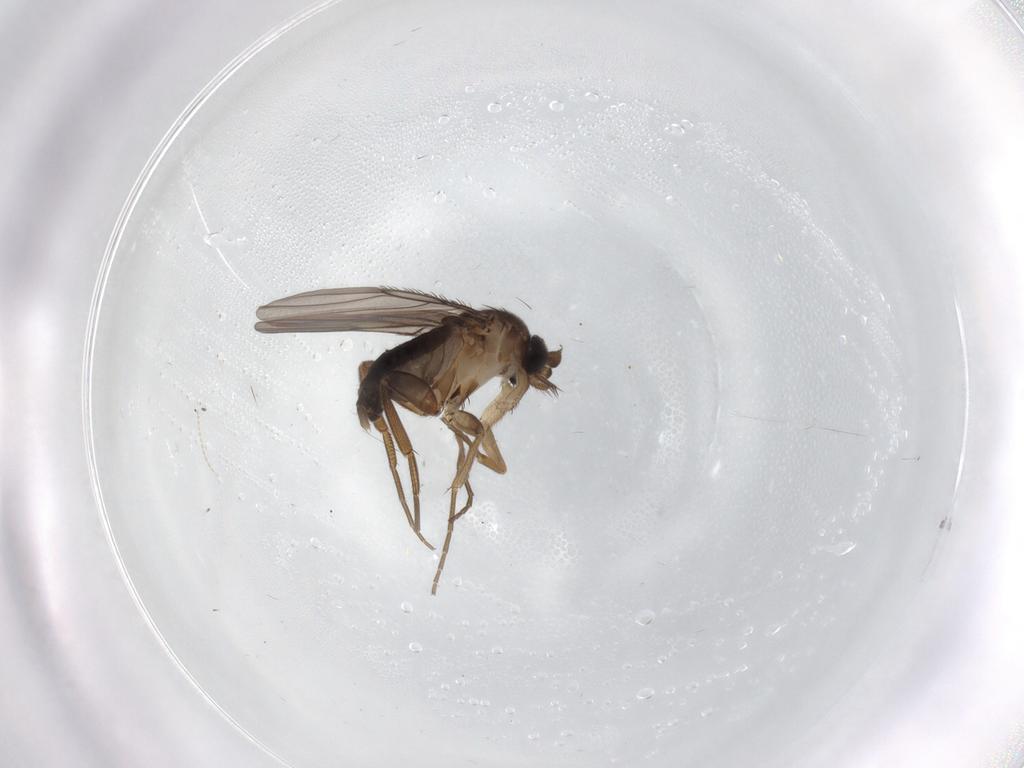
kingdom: Animalia
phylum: Arthropoda
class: Insecta
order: Diptera
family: Phoridae
